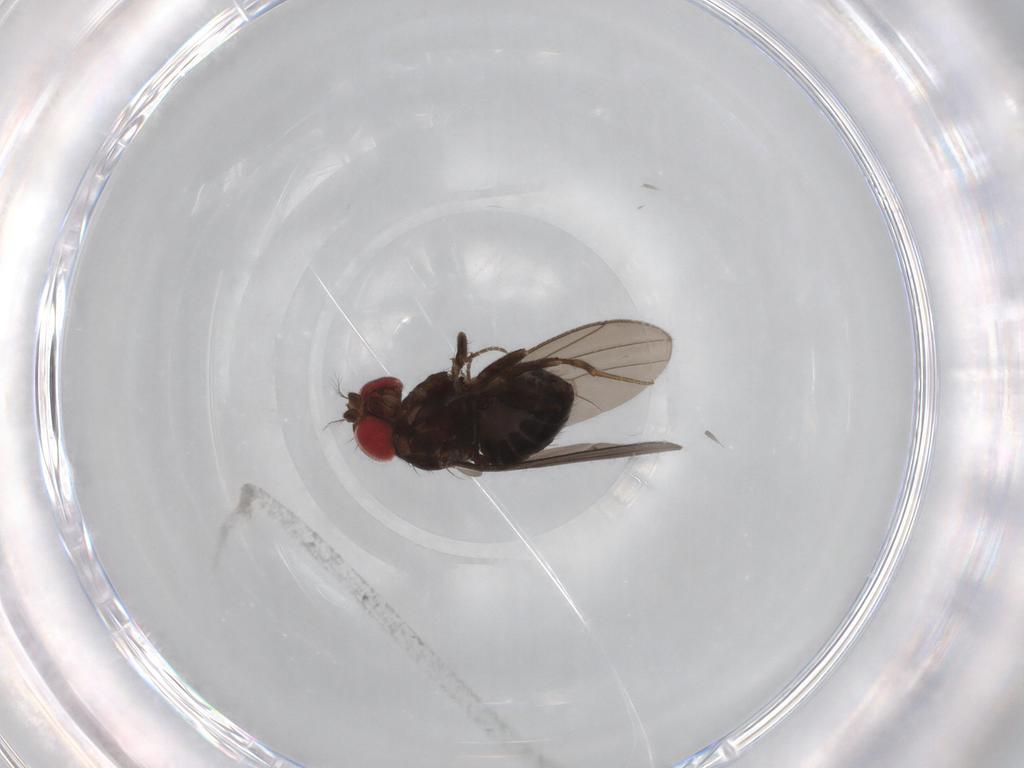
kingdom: Animalia
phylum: Arthropoda
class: Insecta
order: Diptera
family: Drosophilidae
